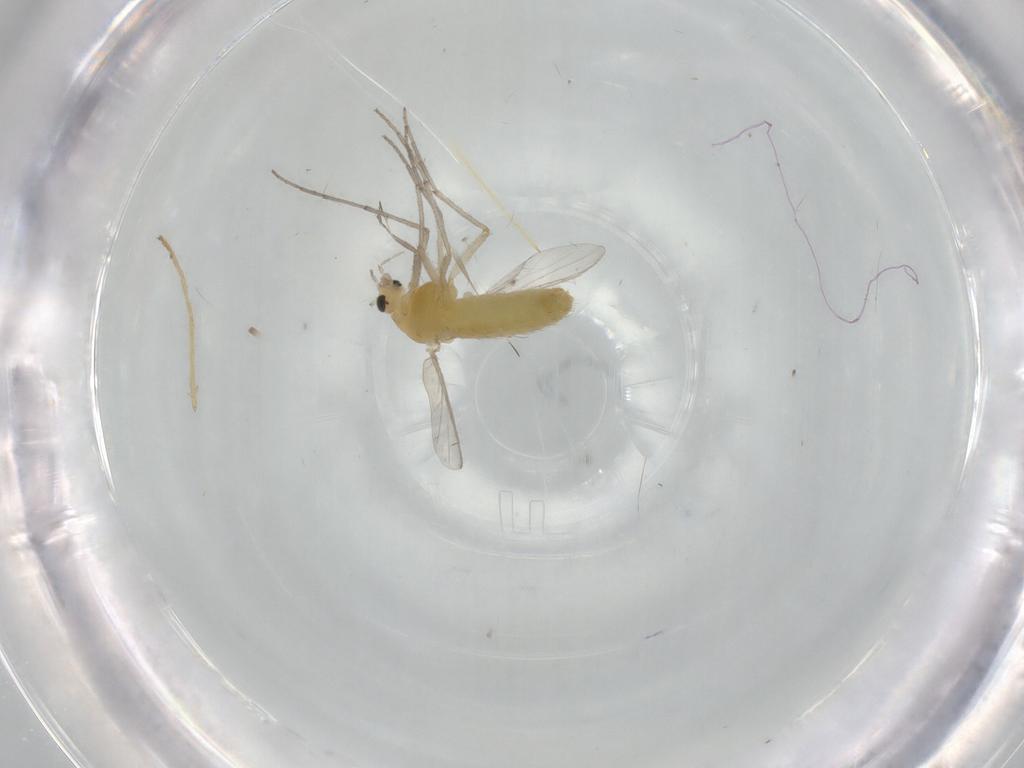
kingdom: Animalia
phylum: Arthropoda
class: Insecta
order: Diptera
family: Chironomidae
